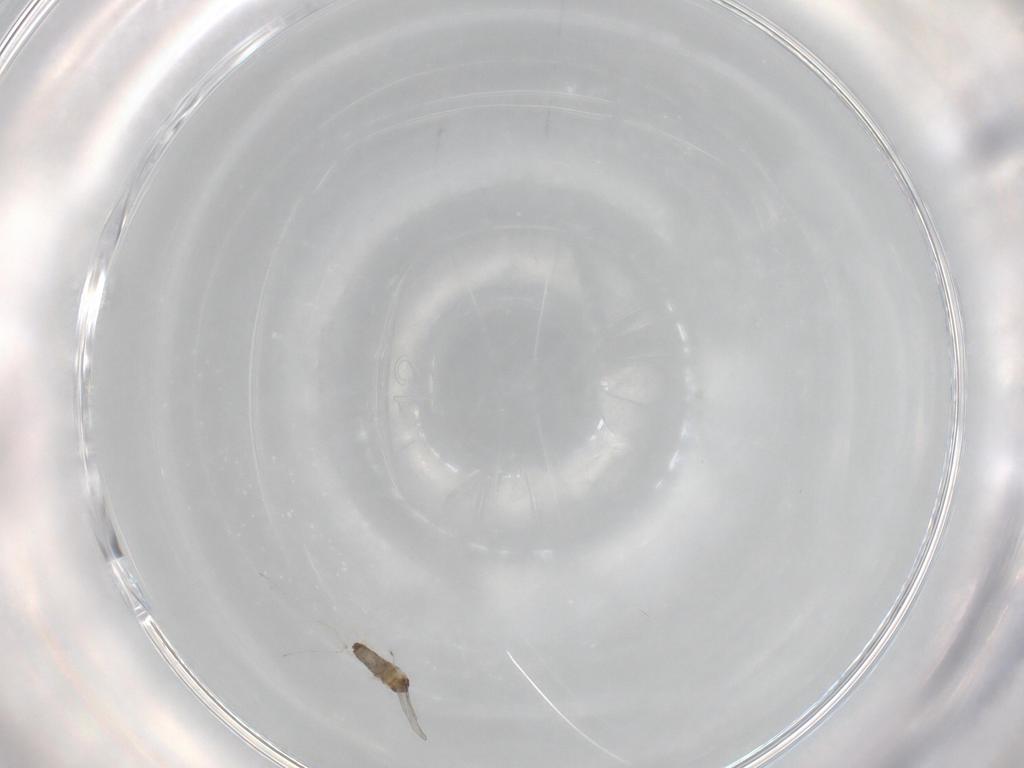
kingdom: Animalia
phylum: Arthropoda
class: Insecta
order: Diptera
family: Cecidomyiidae
